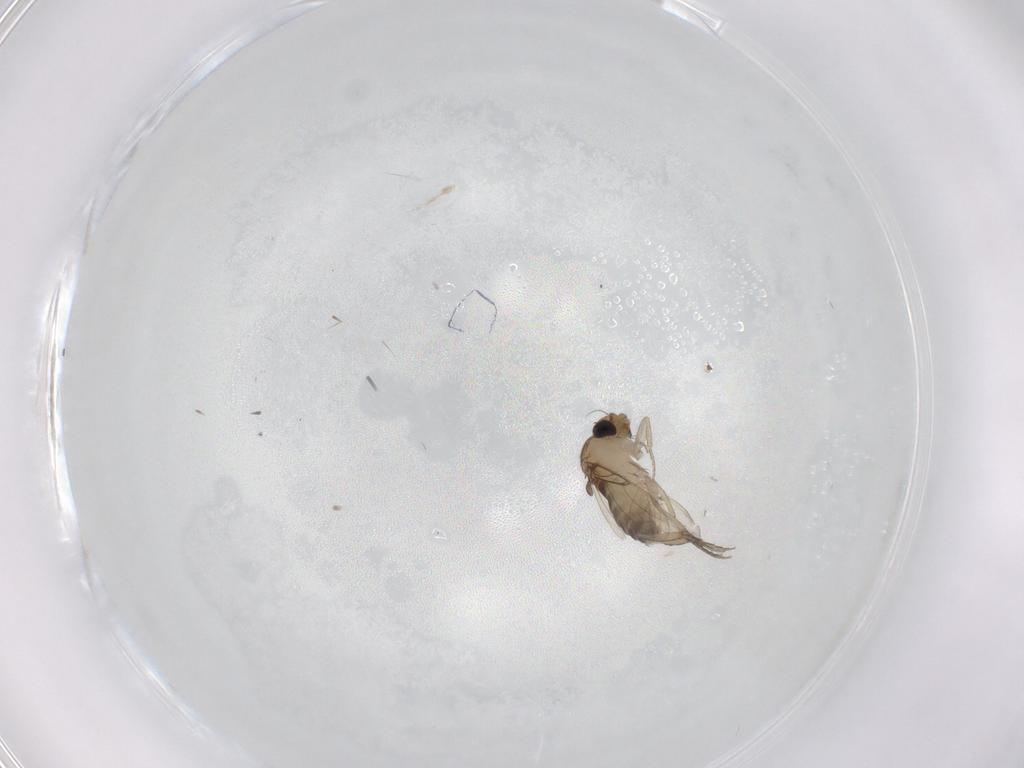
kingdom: Animalia
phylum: Arthropoda
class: Insecta
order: Diptera
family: Phoridae
